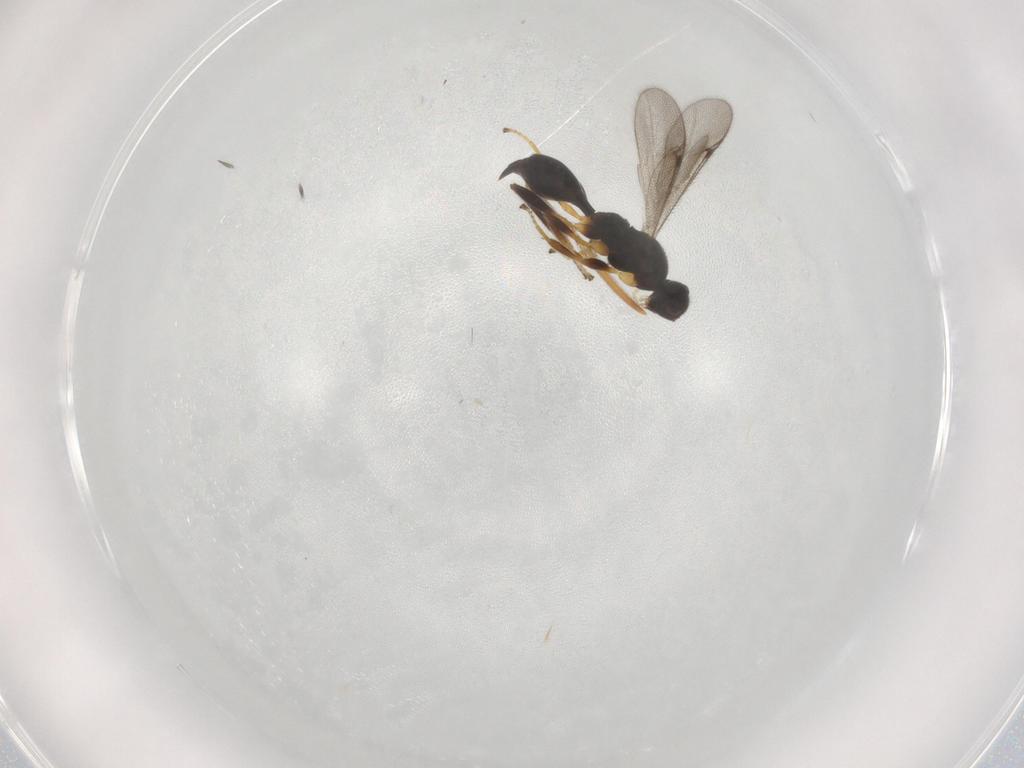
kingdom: Animalia
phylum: Arthropoda
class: Insecta
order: Hymenoptera
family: Proctotrupidae
